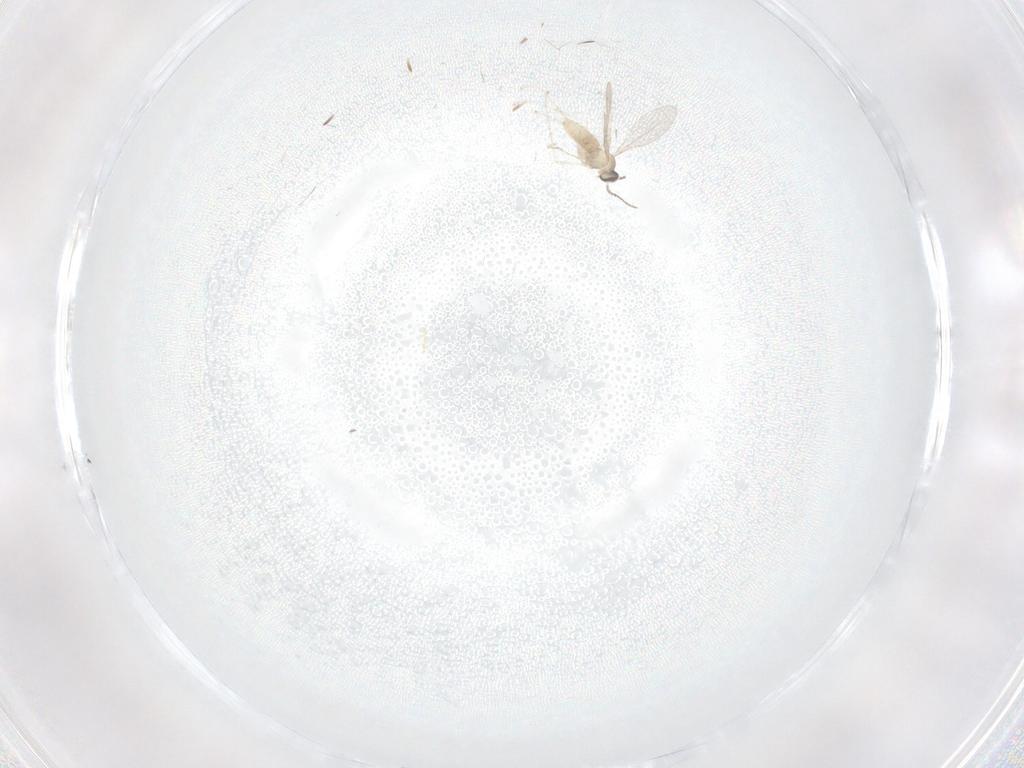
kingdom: Animalia
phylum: Arthropoda
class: Insecta
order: Diptera
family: Cecidomyiidae
